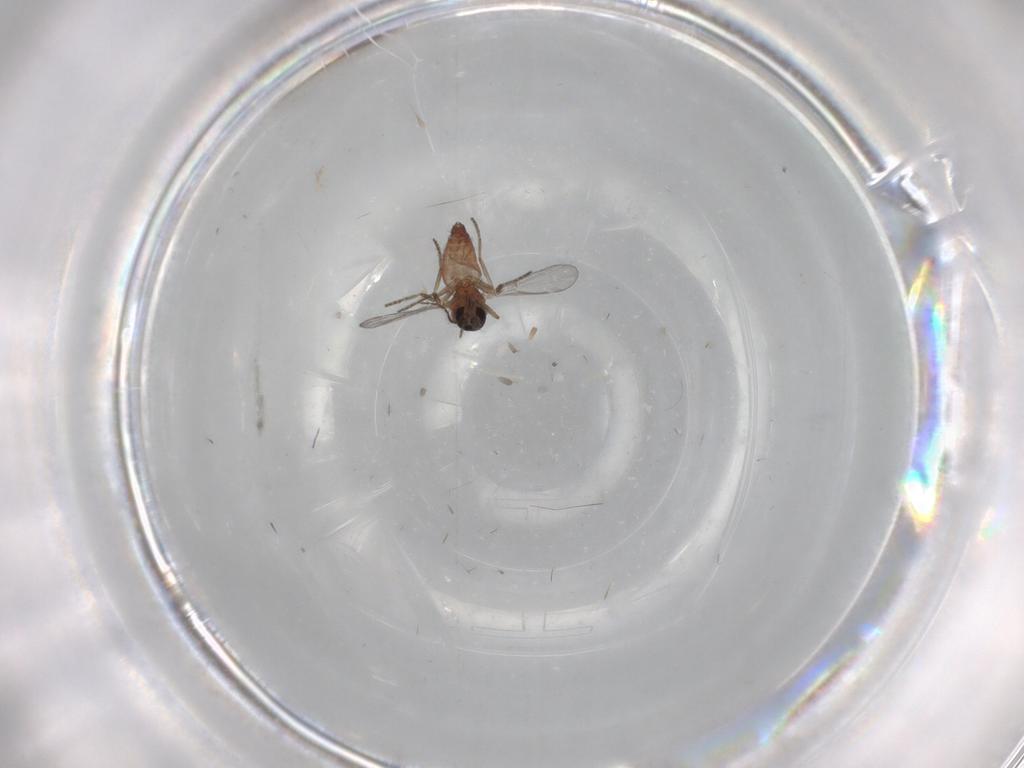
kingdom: Animalia
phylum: Arthropoda
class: Insecta
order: Diptera
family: Ceratopogonidae
